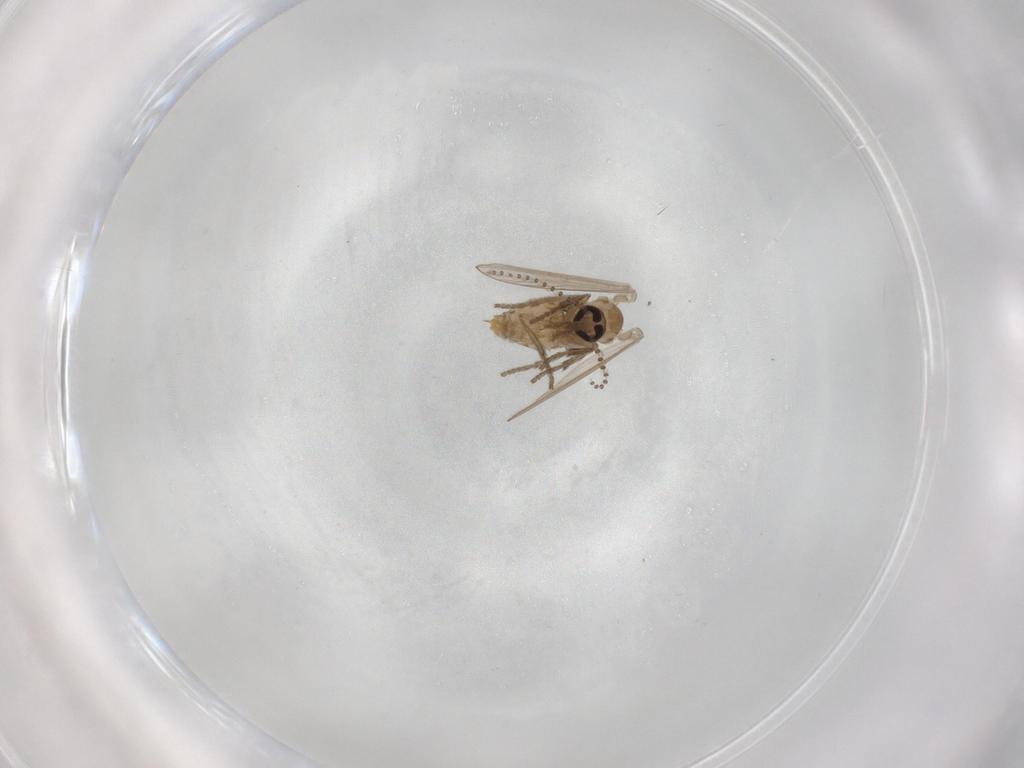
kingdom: Animalia
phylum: Arthropoda
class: Insecta
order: Diptera
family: Psychodidae
